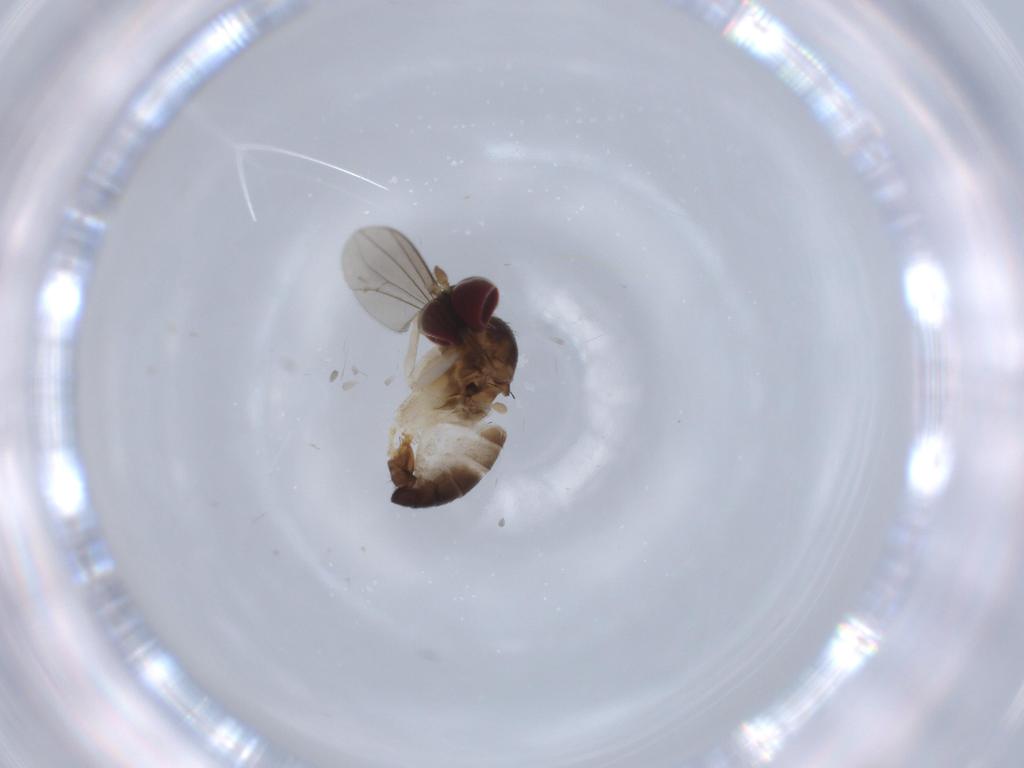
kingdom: Animalia
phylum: Arthropoda
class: Insecta
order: Diptera
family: Dolichopodidae
